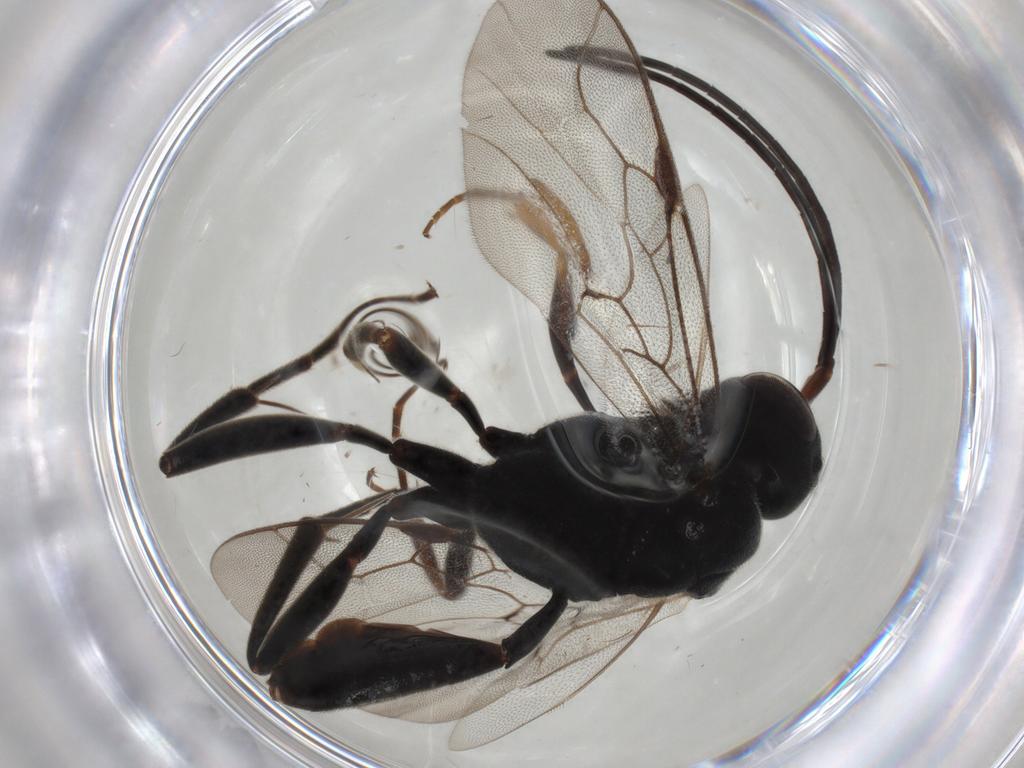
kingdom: Animalia
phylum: Arthropoda
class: Insecta
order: Hymenoptera
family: Evaniidae
